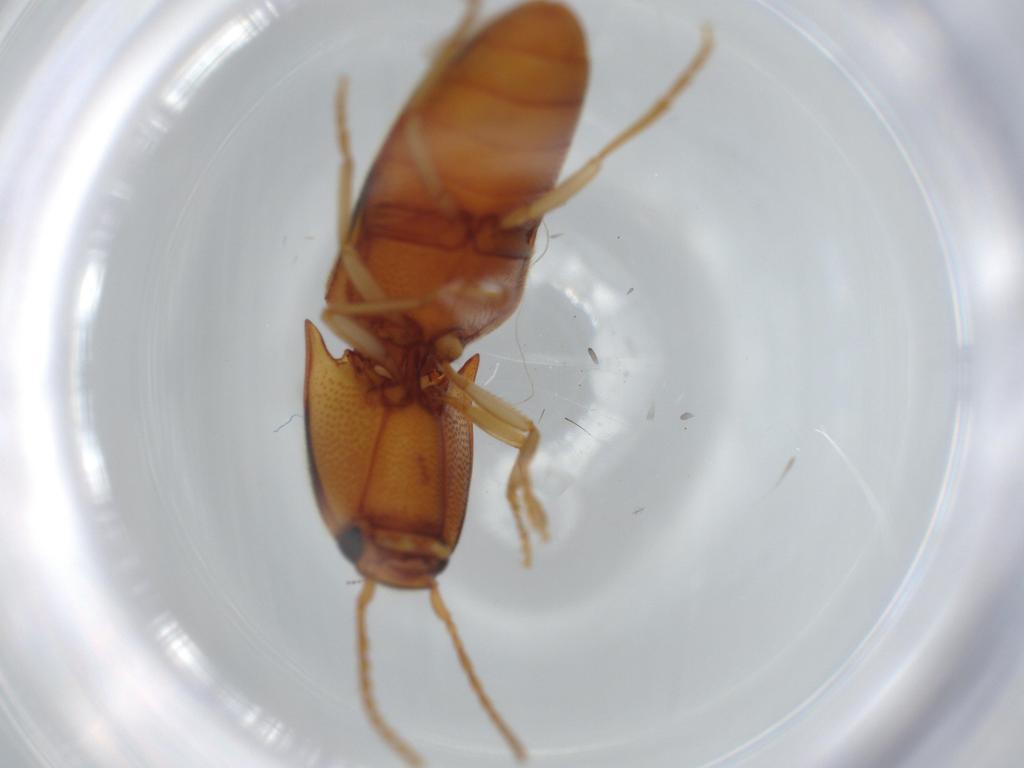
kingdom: Animalia
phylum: Arthropoda
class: Insecta
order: Coleoptera
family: Elateridae
